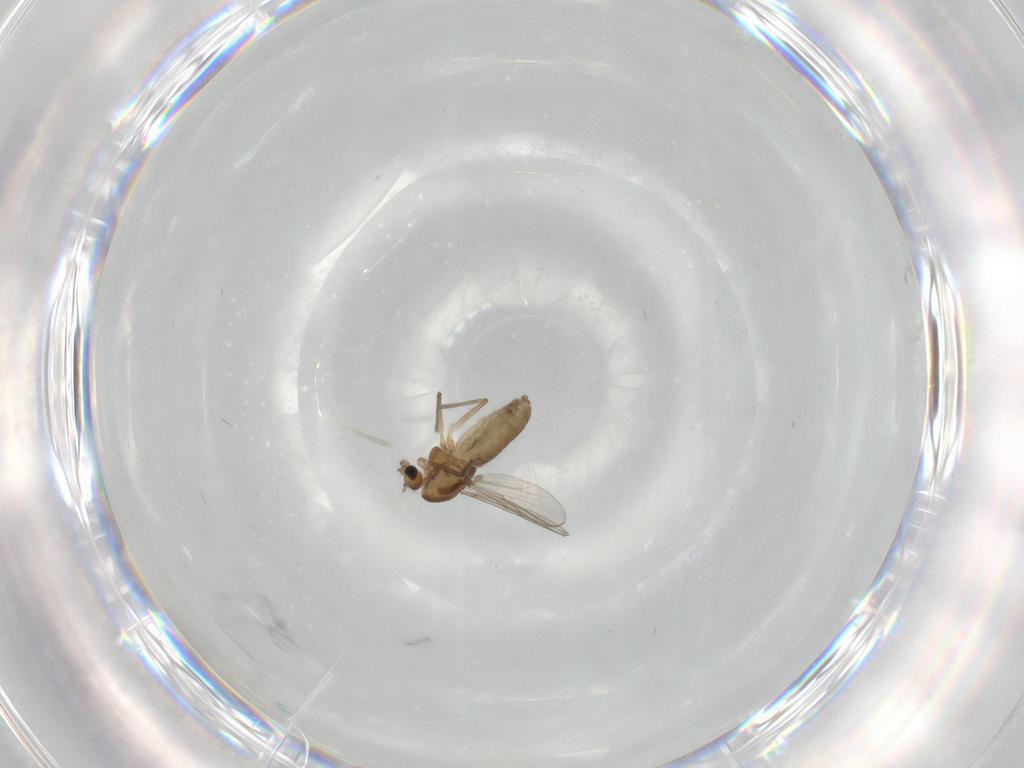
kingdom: Animalia
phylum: Arthropoda
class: Insecta
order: Diptera
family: Chironomidae
